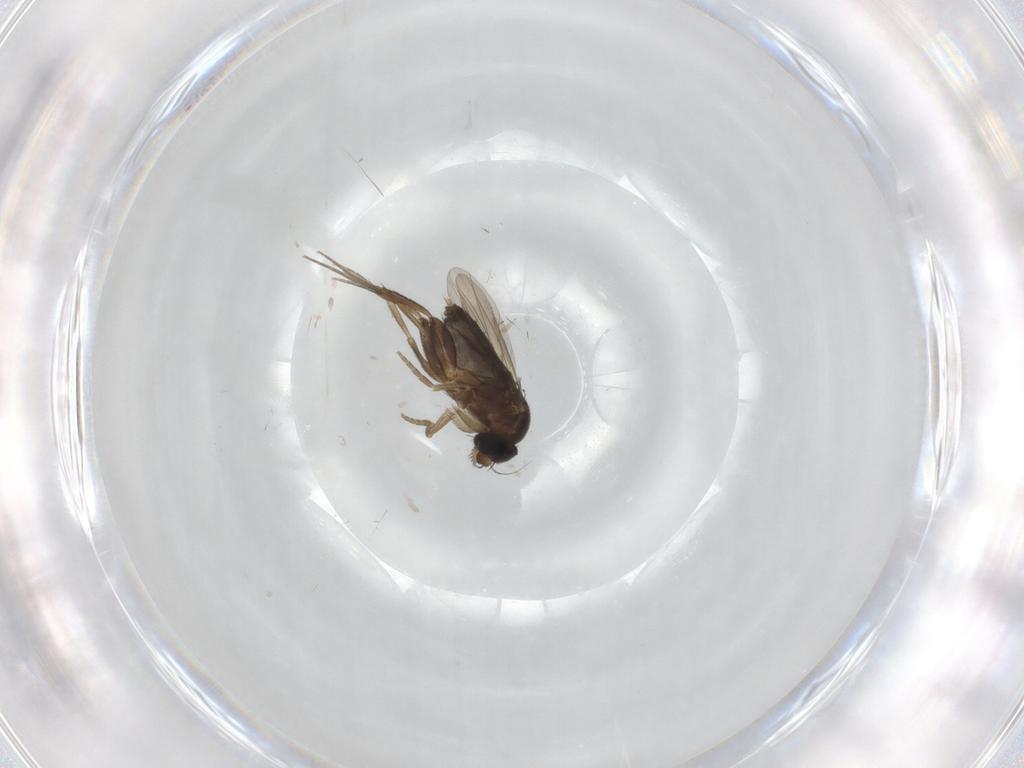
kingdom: Animalia
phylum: Arthropoda
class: Insecta
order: Diptera
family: Phoridae
